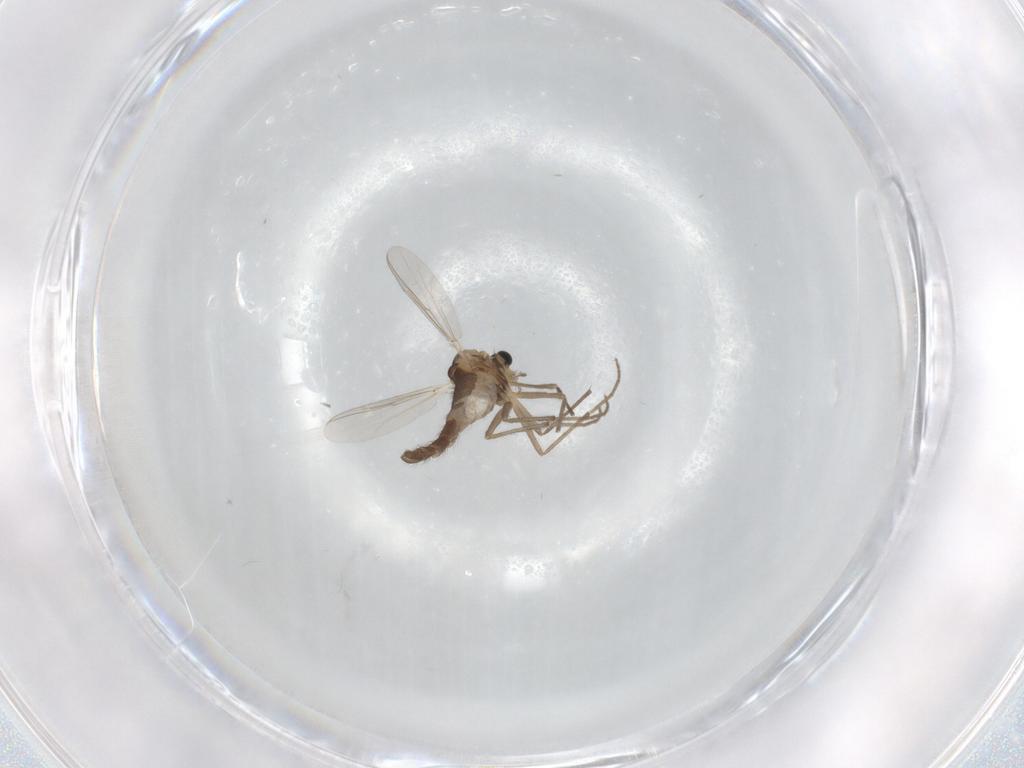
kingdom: Animalia
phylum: Arthropoda
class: Insecta
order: Diptera
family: Chironomidae
